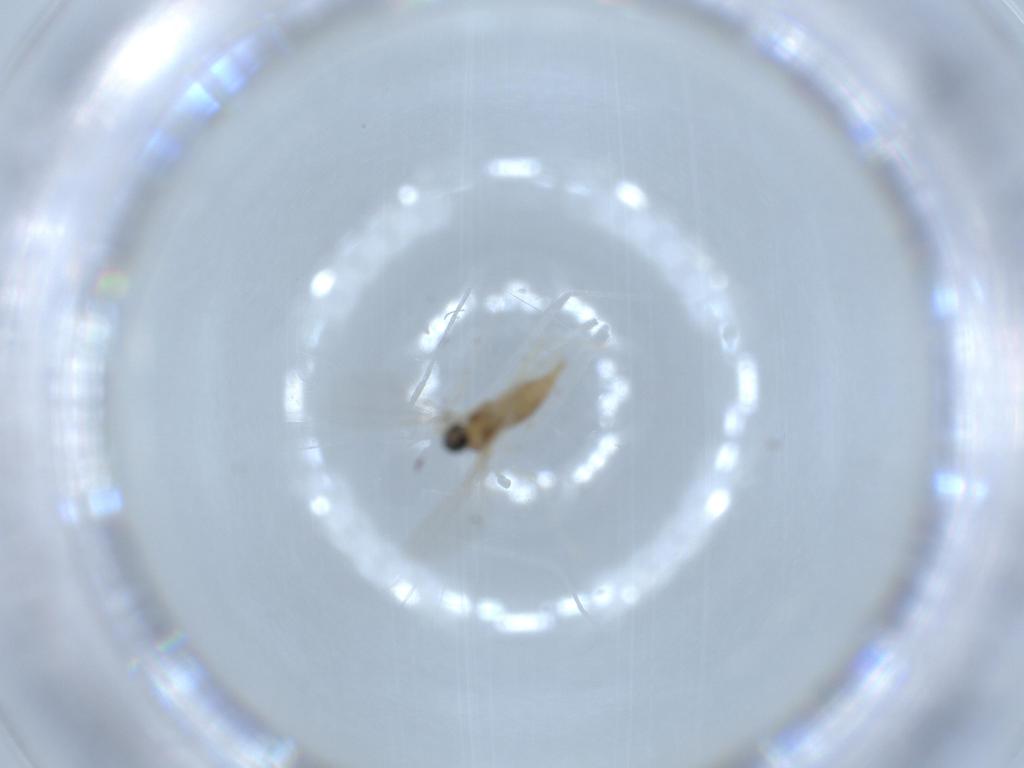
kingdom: Animalia
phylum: Arthropoda
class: Insecta
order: Diptera
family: Cecidomyiidae
